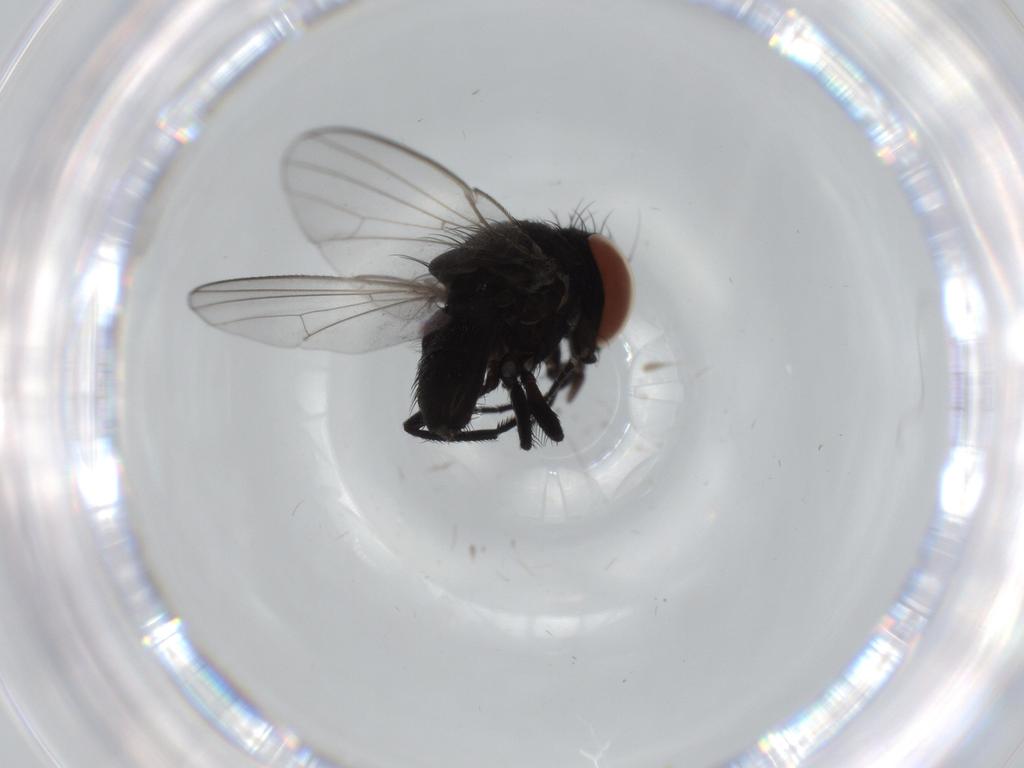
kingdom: Animalia
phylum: Arthropoda
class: Insecta
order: Diptera
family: Milichiidae
